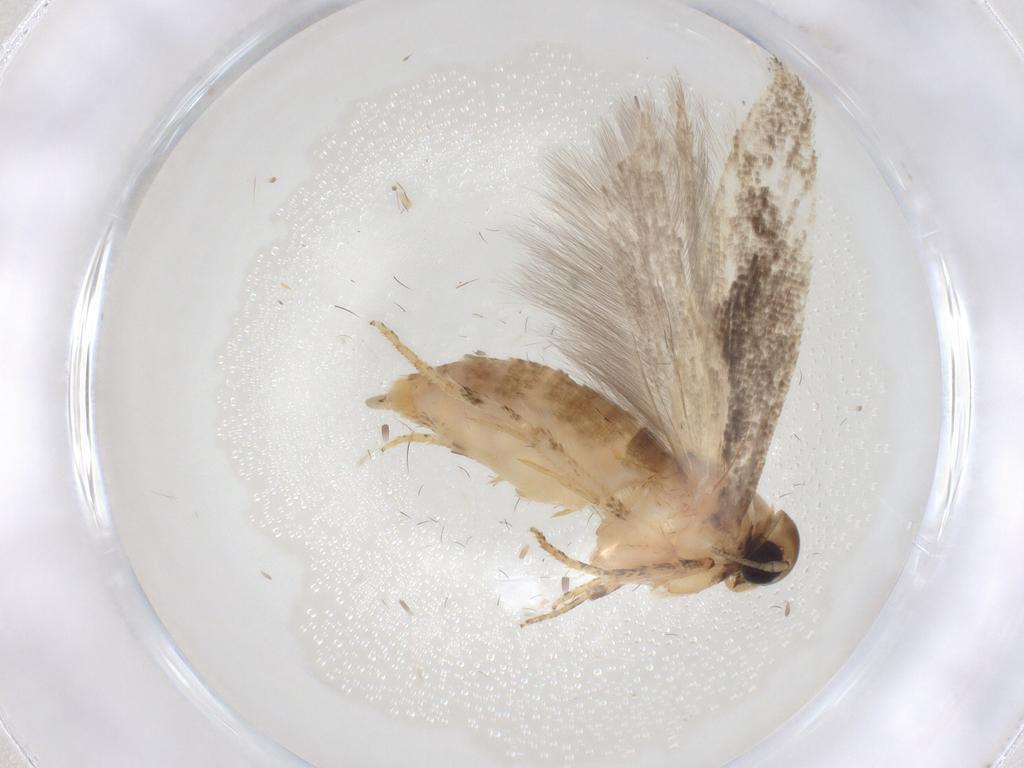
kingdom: Animalia
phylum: Arthropoda
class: Insecta
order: Lepidoptera
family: Gelechiidae
